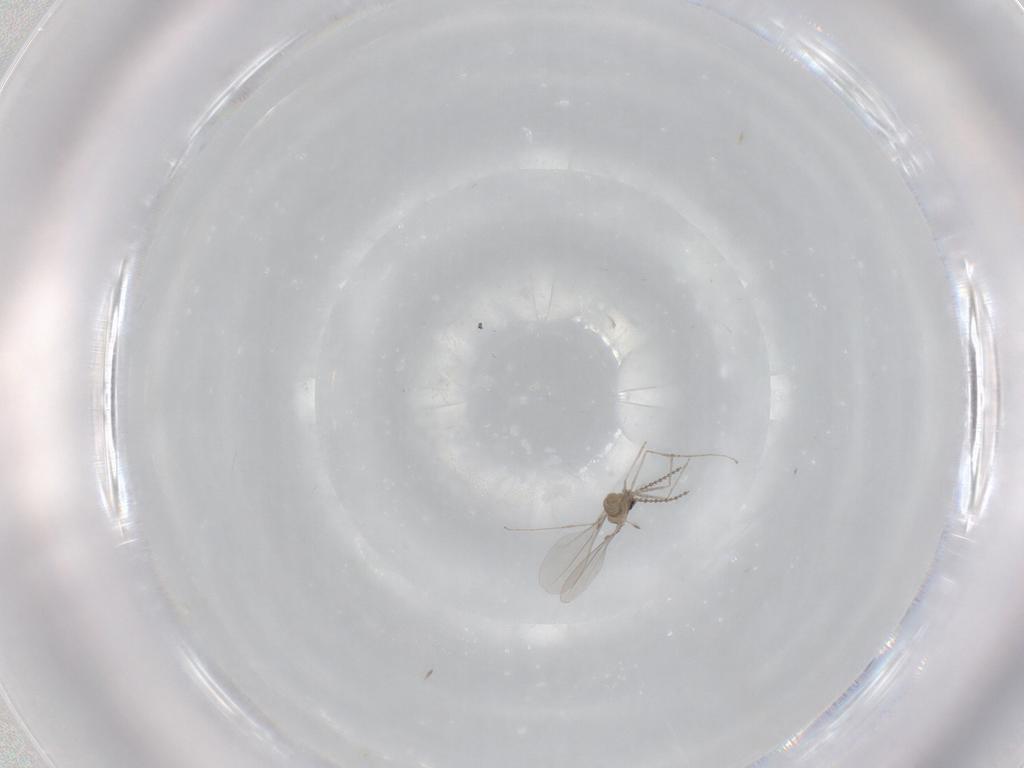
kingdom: Animalia
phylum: Arthropoda
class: Insecta
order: Diptera
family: Cecidomyiidae
